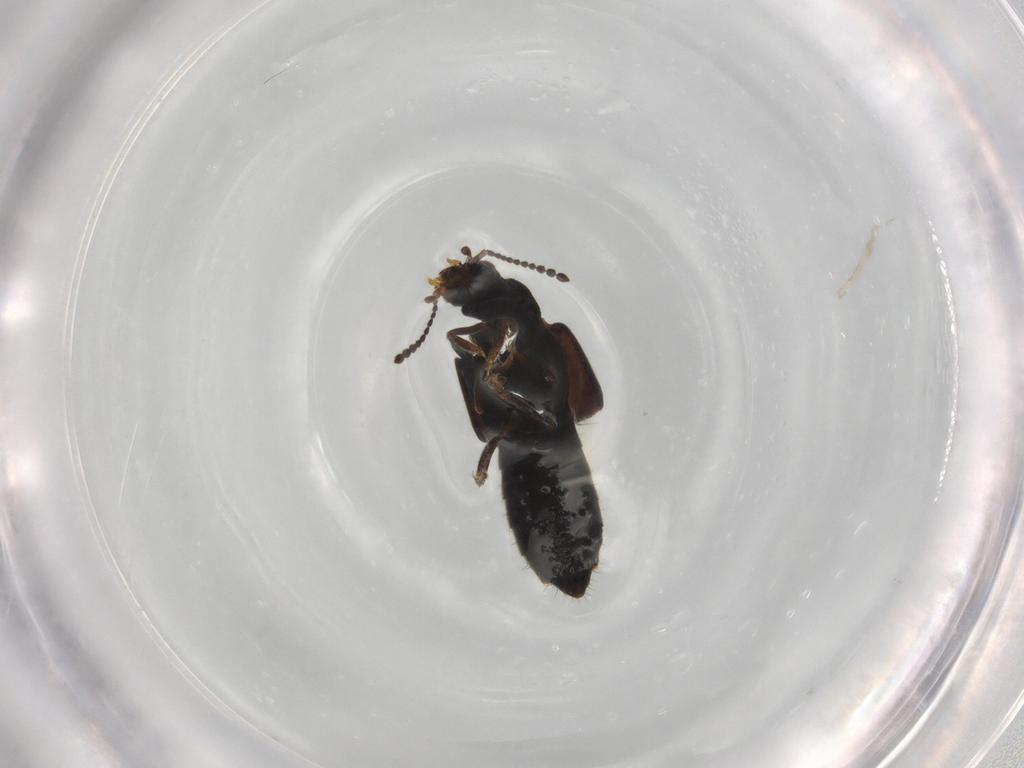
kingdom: Animalia
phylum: Arthropoda
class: Insecta
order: Coleoptera
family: Staphylinidae
